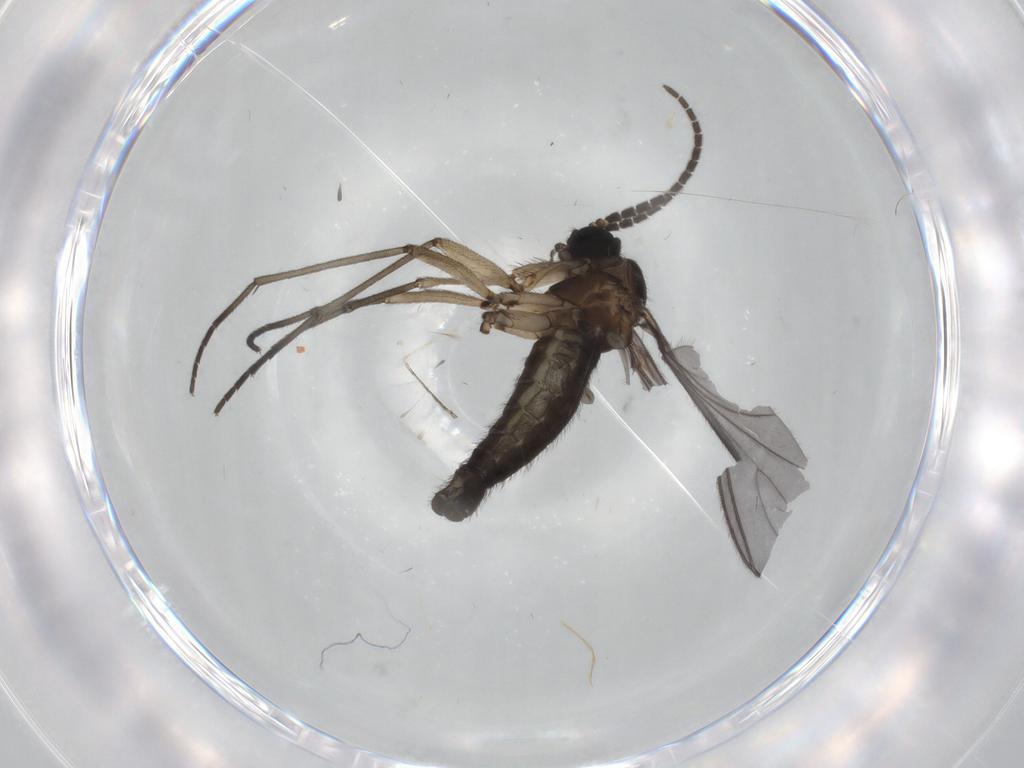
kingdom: Animalia
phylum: Arthropoda
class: Insecta
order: Diptera
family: Sciaridae
